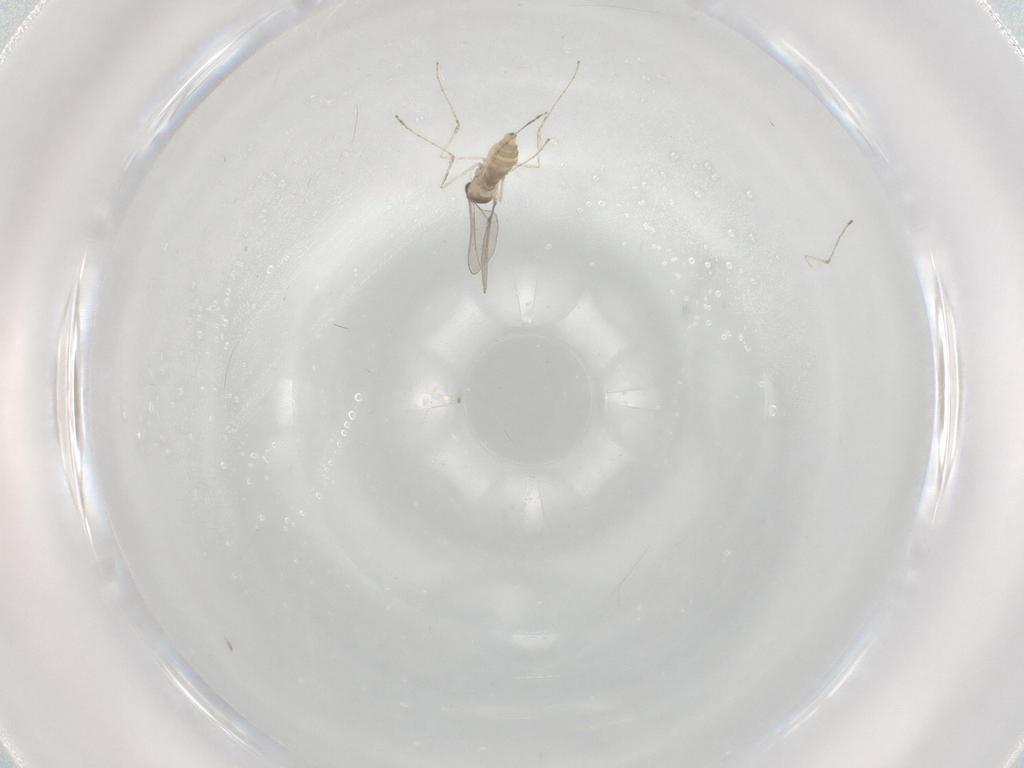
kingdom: Animalia
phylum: Arthropoda
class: Insecta
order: Diptera
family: Cecidomyiidae
